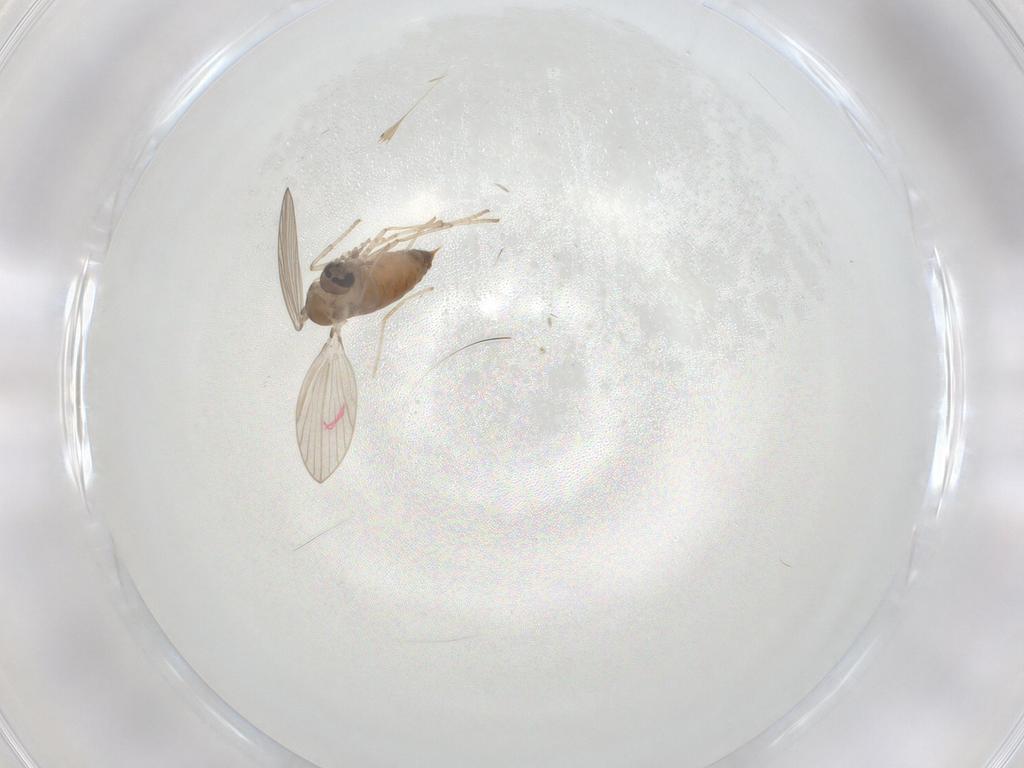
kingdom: Animalia
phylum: Arthropoda
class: Insecta
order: Diptera
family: Psychodidae
